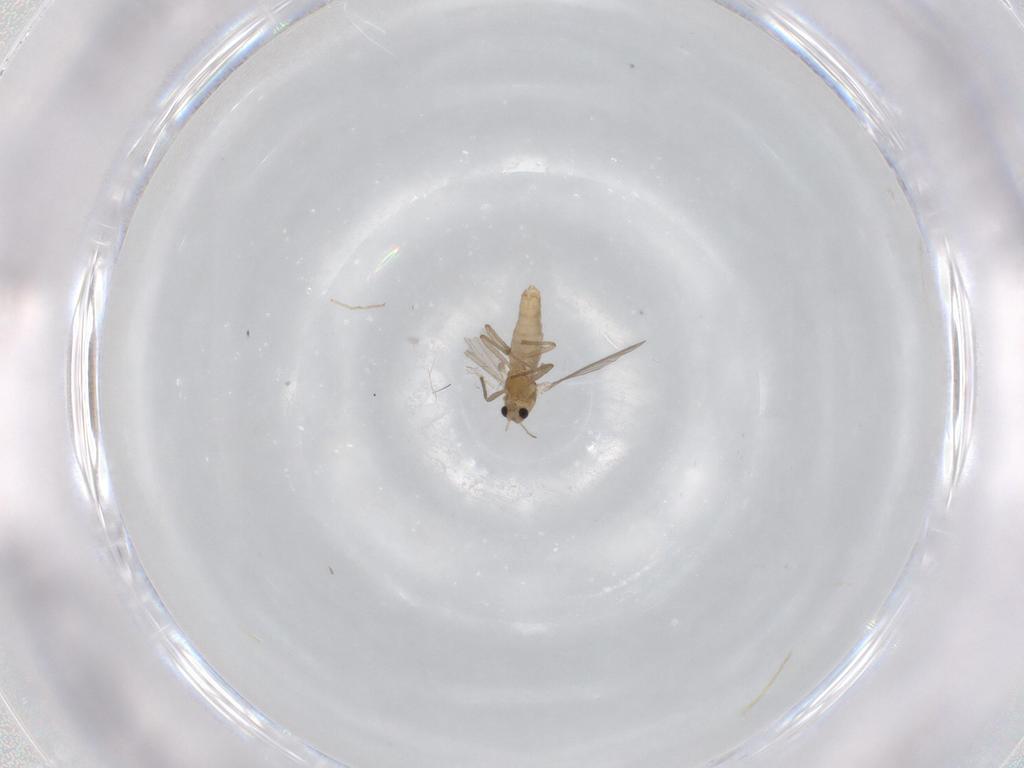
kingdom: Animalia
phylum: Arthropoda
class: Insecta
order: Diptera
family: Chironomidae
